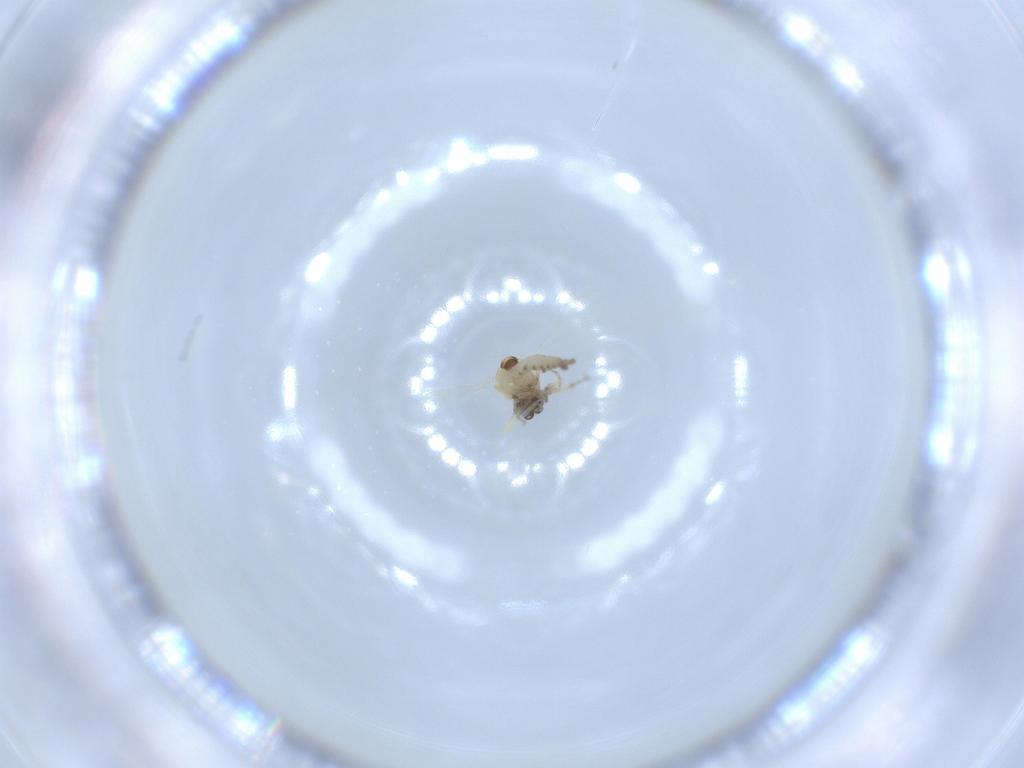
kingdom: Animalia
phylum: Arthropoda
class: Insecta
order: Diptera
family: Ceratopogonidae
